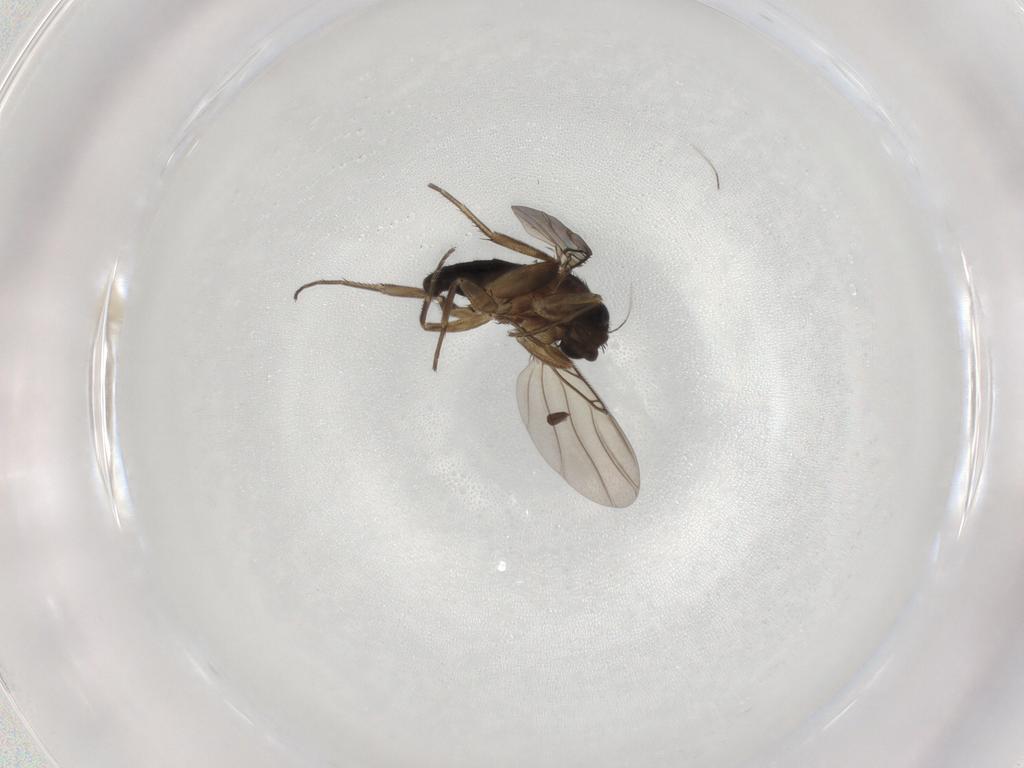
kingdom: Animalia
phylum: Arthropoda
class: Insecta
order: Diptera
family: Phoridae
